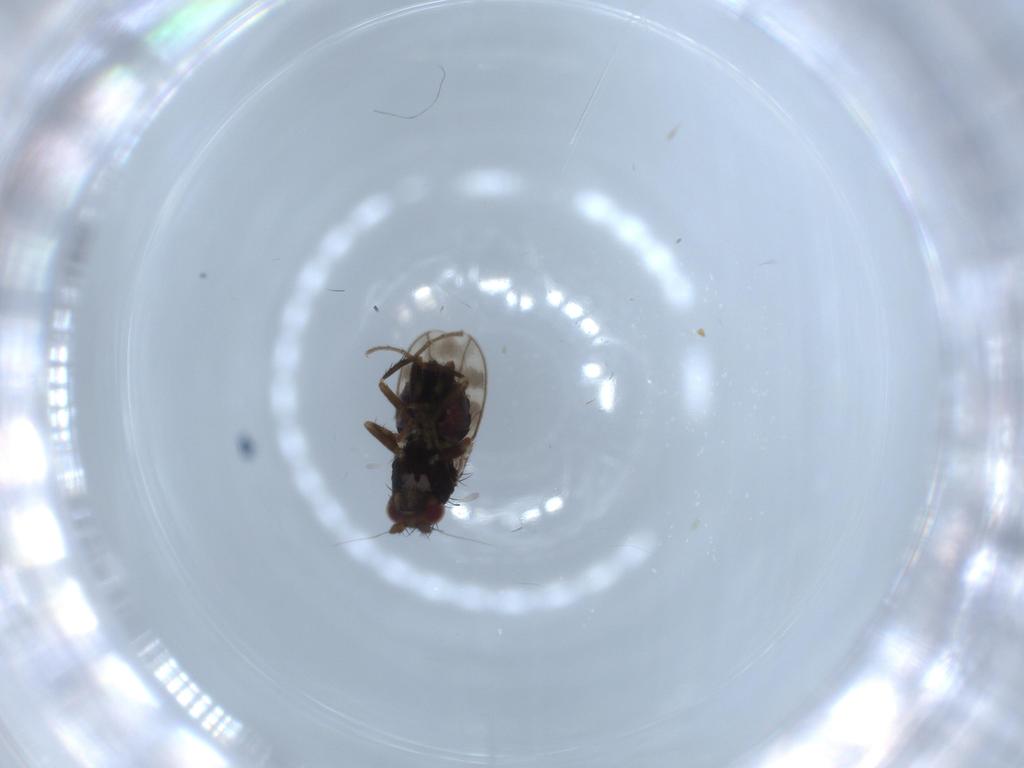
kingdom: Animalia
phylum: Arthropoda
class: Insecta
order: Diptera
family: Sphaeroceridae
